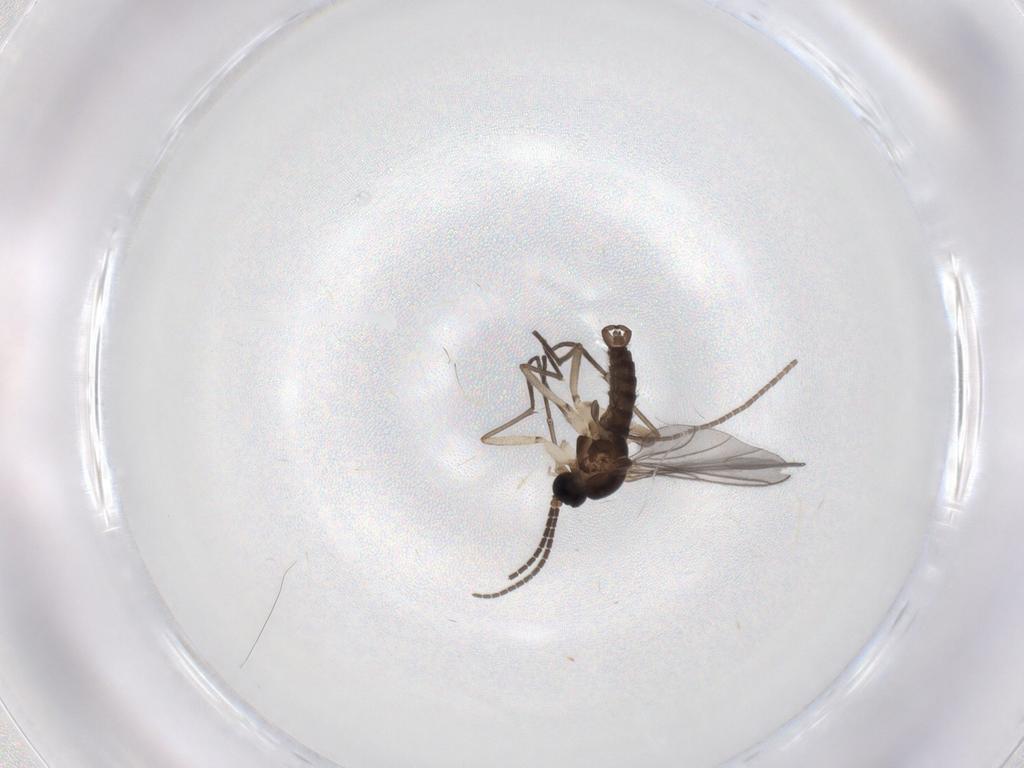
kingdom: Animalia
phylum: Arthropoda
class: Insecta
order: Diptera
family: Sciaridae
